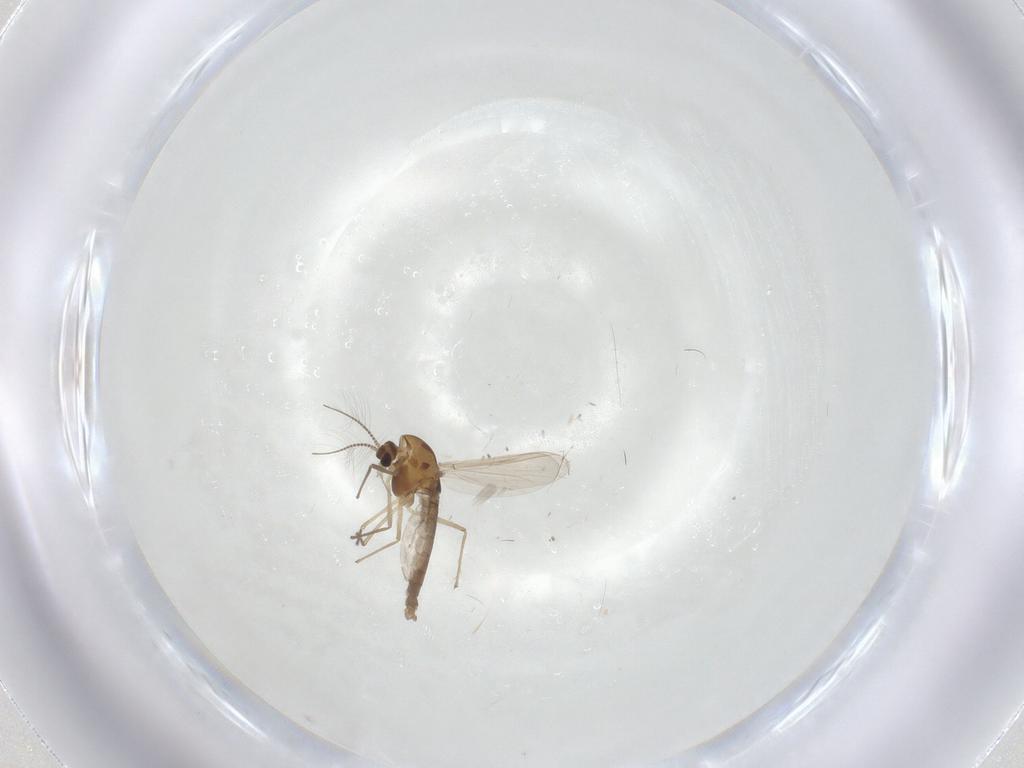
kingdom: Animalia
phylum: Arthropoda
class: Insecta
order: Diptera
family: Chironomidae
